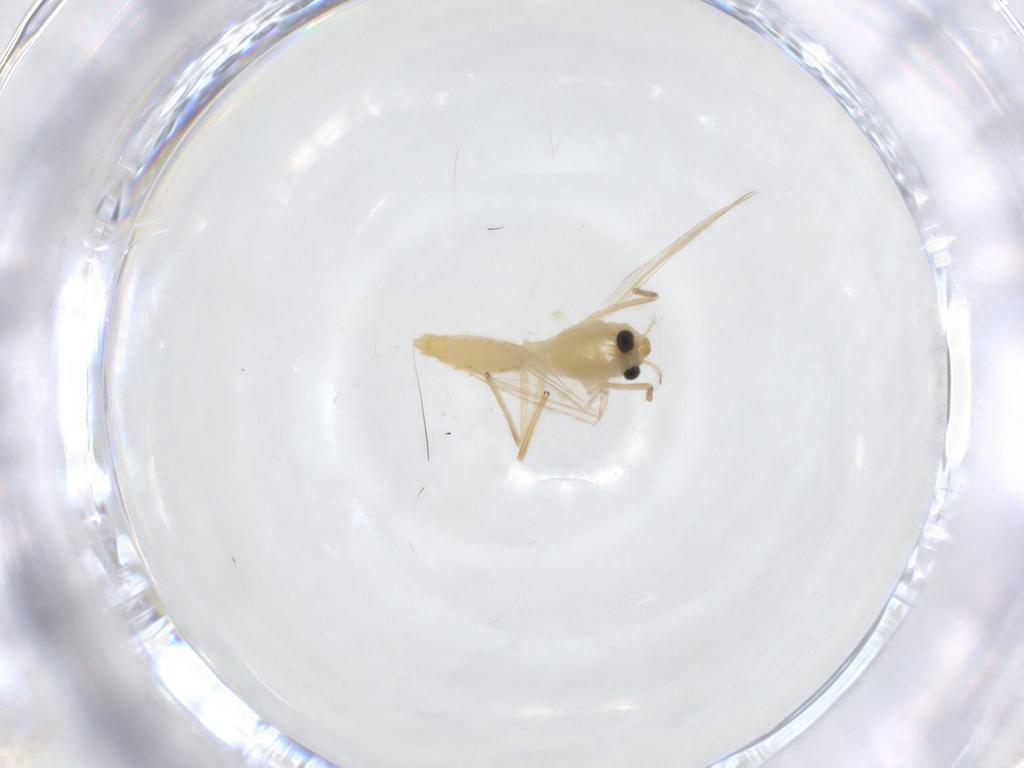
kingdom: Animalia
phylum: Arthropoda
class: Insecta
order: Diptera
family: Chironomidae
